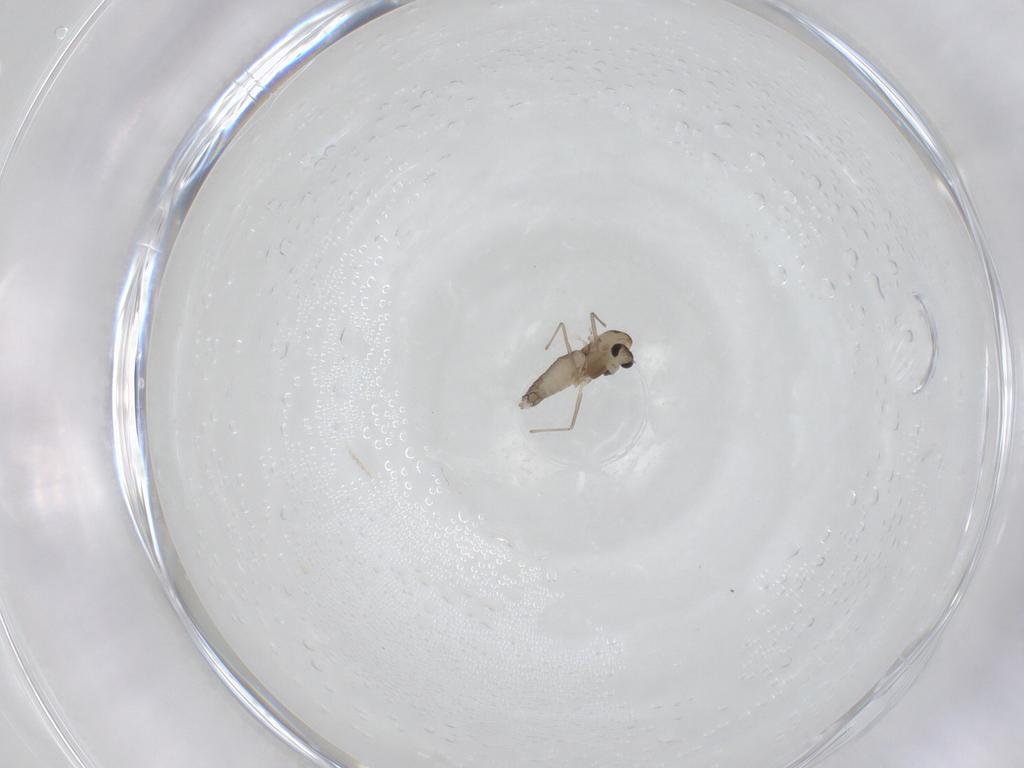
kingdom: Animalia
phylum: Arthropoda
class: Insecta
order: Diptera
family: Chironomidae
